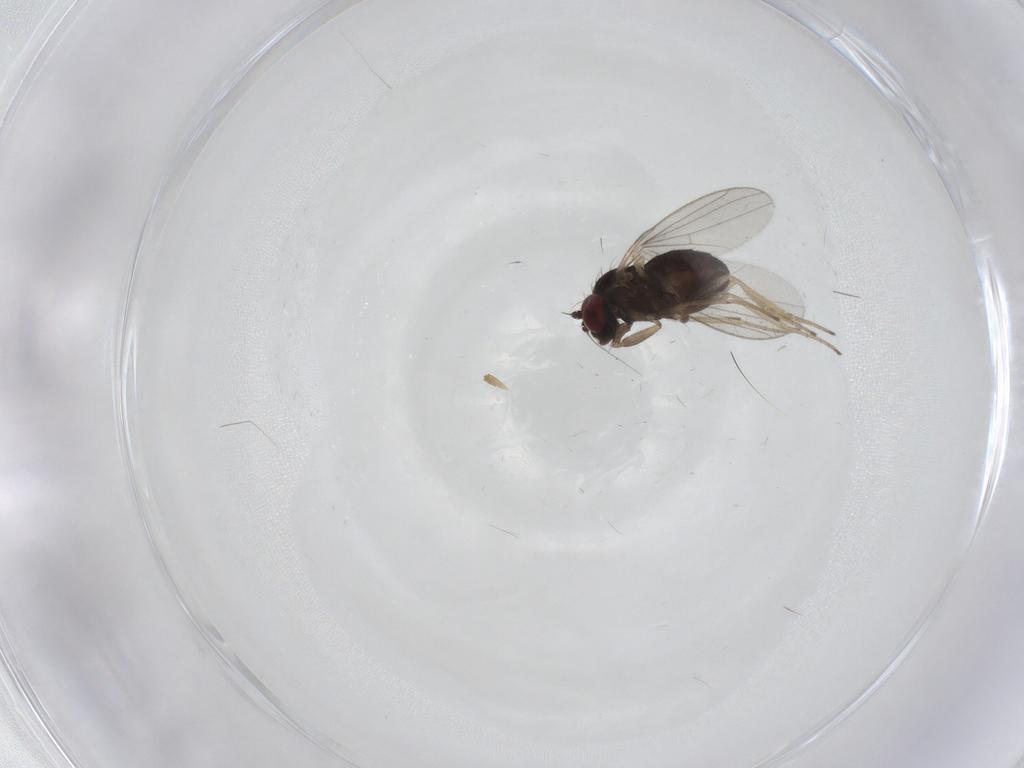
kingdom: Animalia
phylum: Arthropoda
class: Insecta
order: Diptera
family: Dolichopodidae
